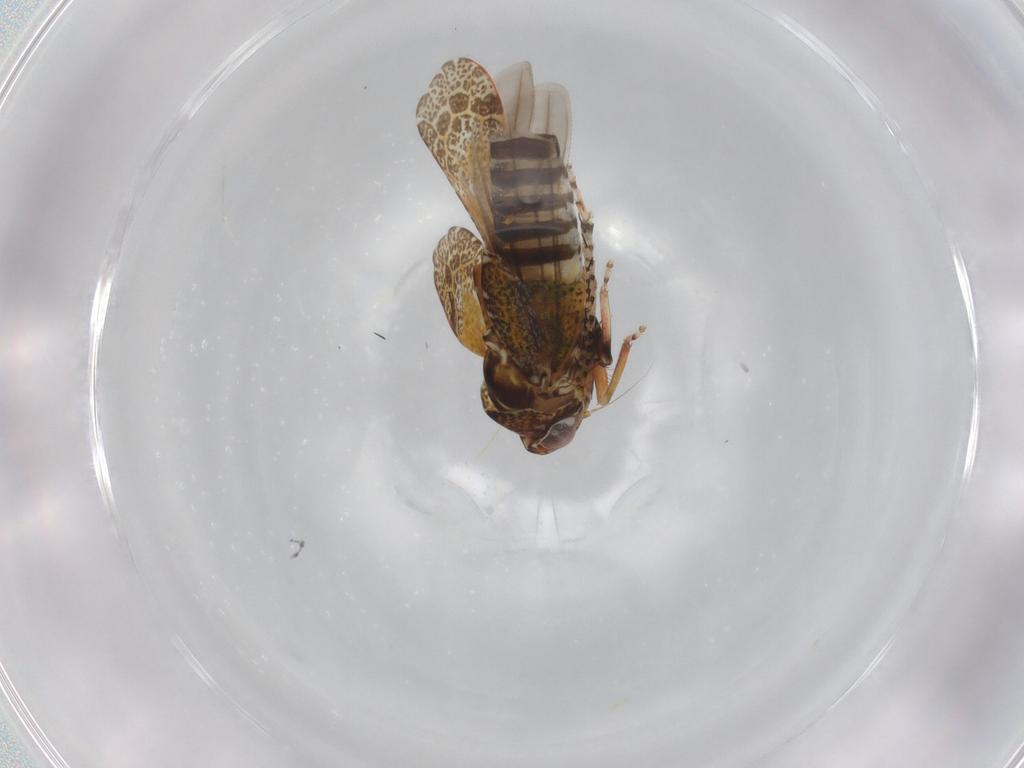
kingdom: Animalia
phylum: Arthropoda
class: Insecta
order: Hemiptera
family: Cicadellidae
